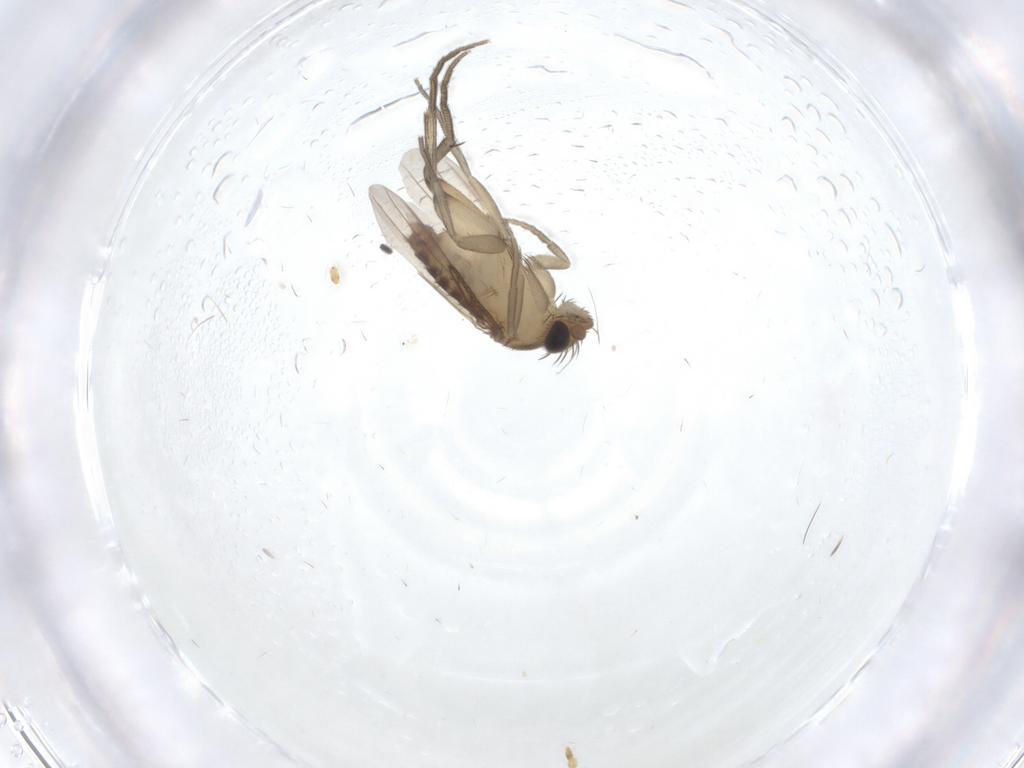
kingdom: Animalia
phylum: Arthropoda
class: Insecta
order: Diptera
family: Phoridae
